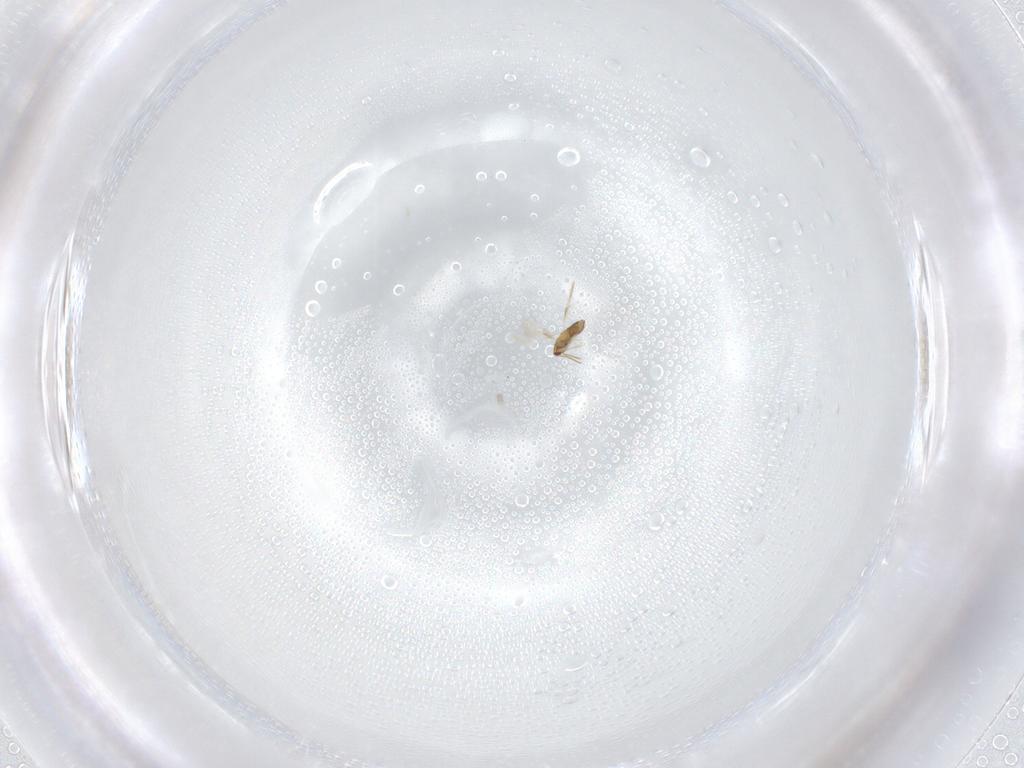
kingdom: Animalia
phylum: Arthropoda
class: Insecta
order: Hymenoptera
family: Aphelinidae
